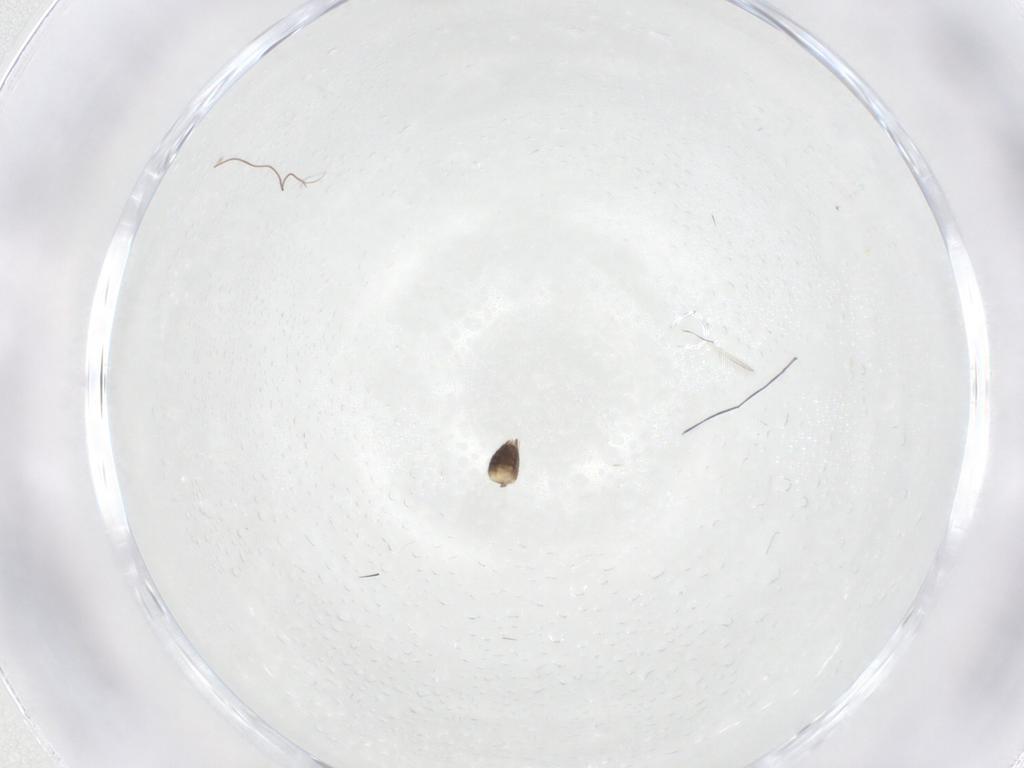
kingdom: Animalia
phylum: Arthropoda
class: Insecta
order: Hymenoptera
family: Mymaridae
